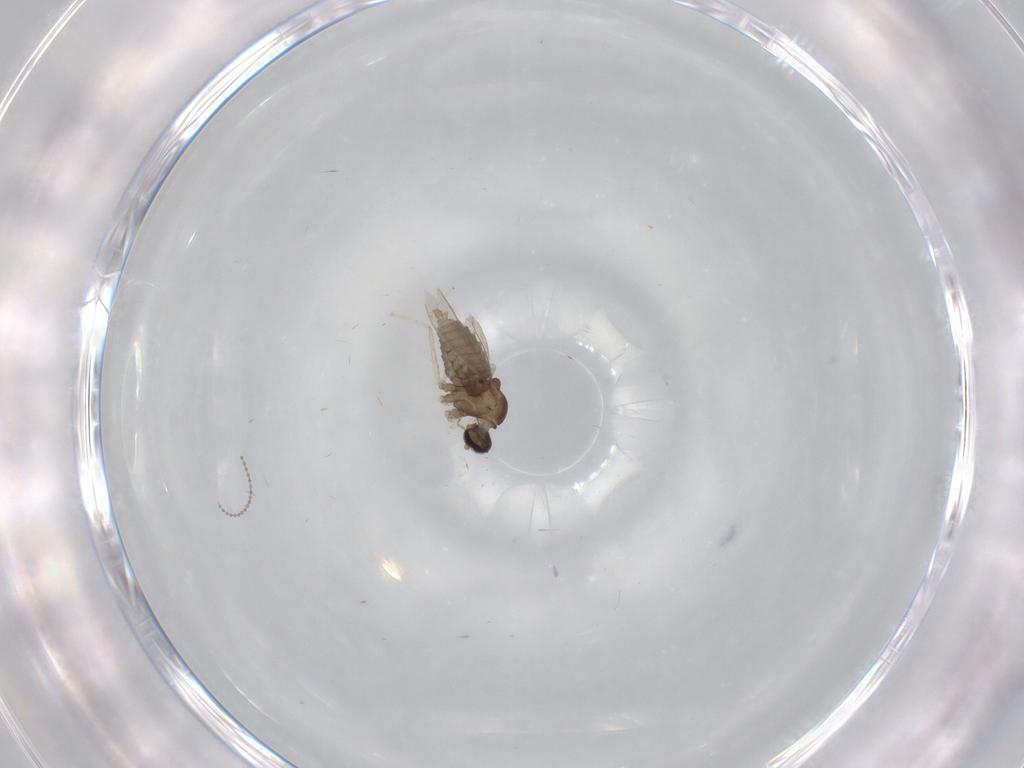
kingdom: Animalia
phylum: Arthropoda
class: Insecta
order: Diptera
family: Cecidomyiidae
